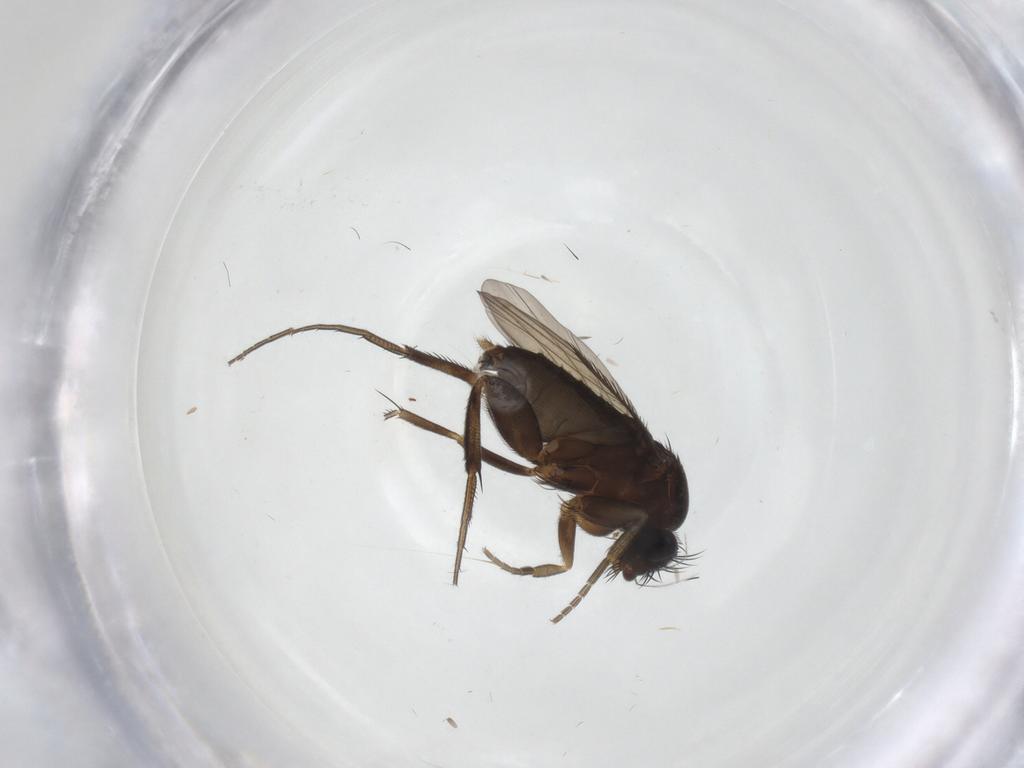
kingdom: Animalia
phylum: Arthropoda
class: Insecta
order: Diptera
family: Phoridae
